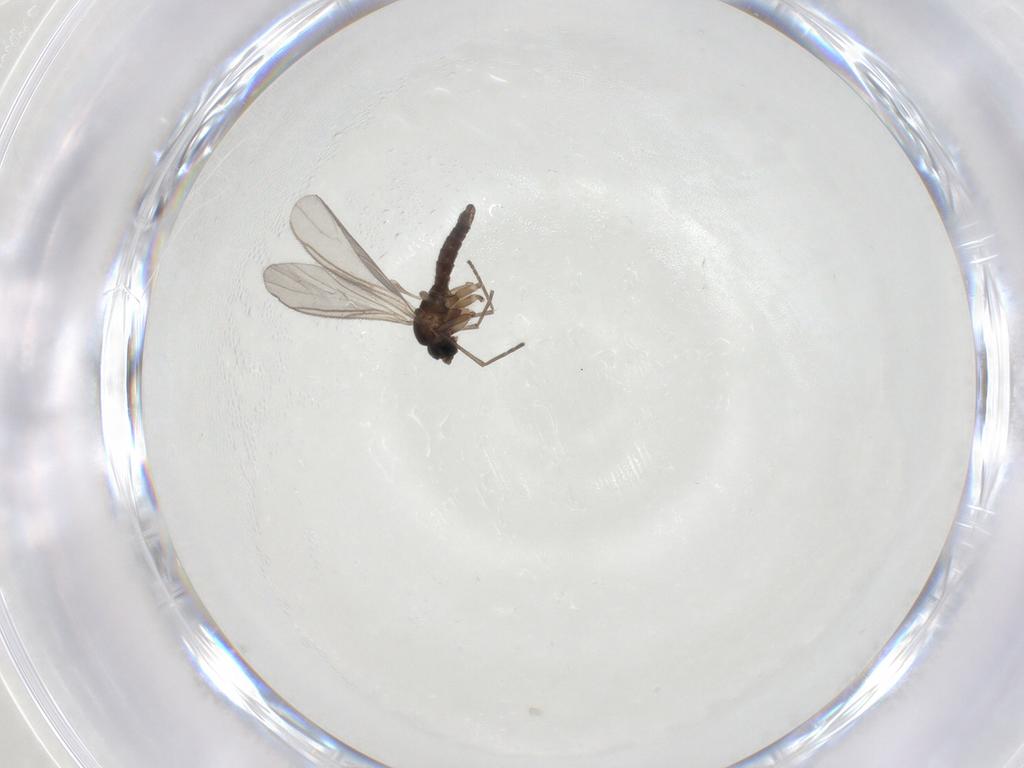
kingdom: Animalia
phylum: Arthropoda
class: Insecta
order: Diptera
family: Sciaridae
